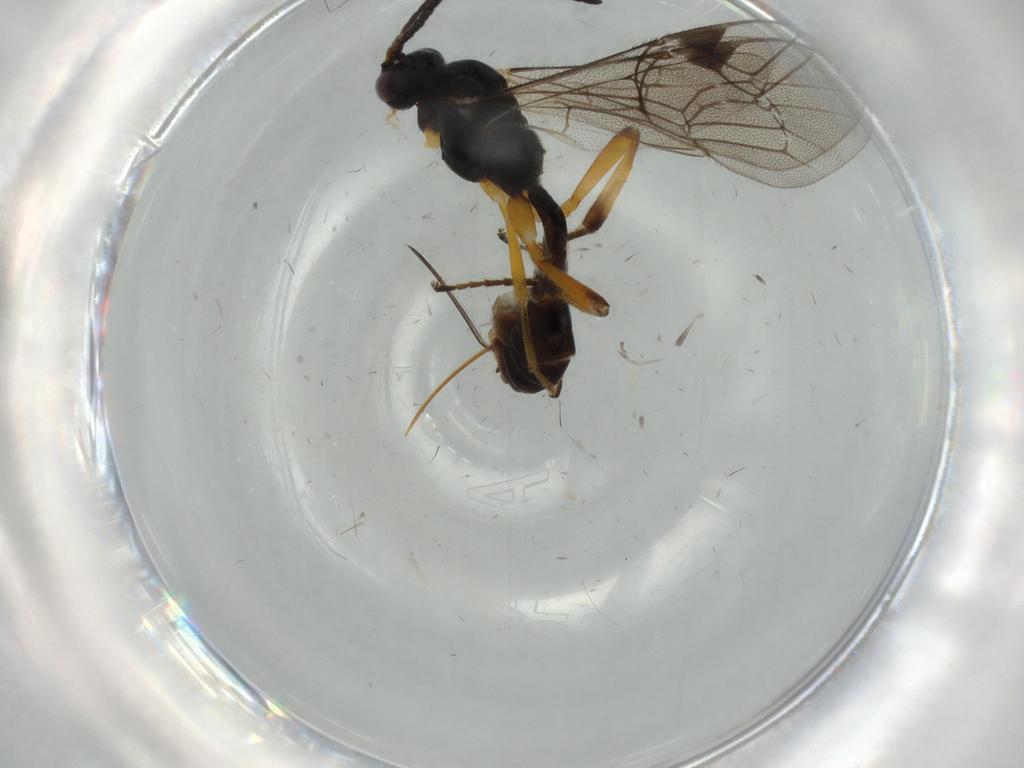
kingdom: Animalia
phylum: Arthropoda
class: Insecta
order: Hymenoptera
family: Ichneumonidae
